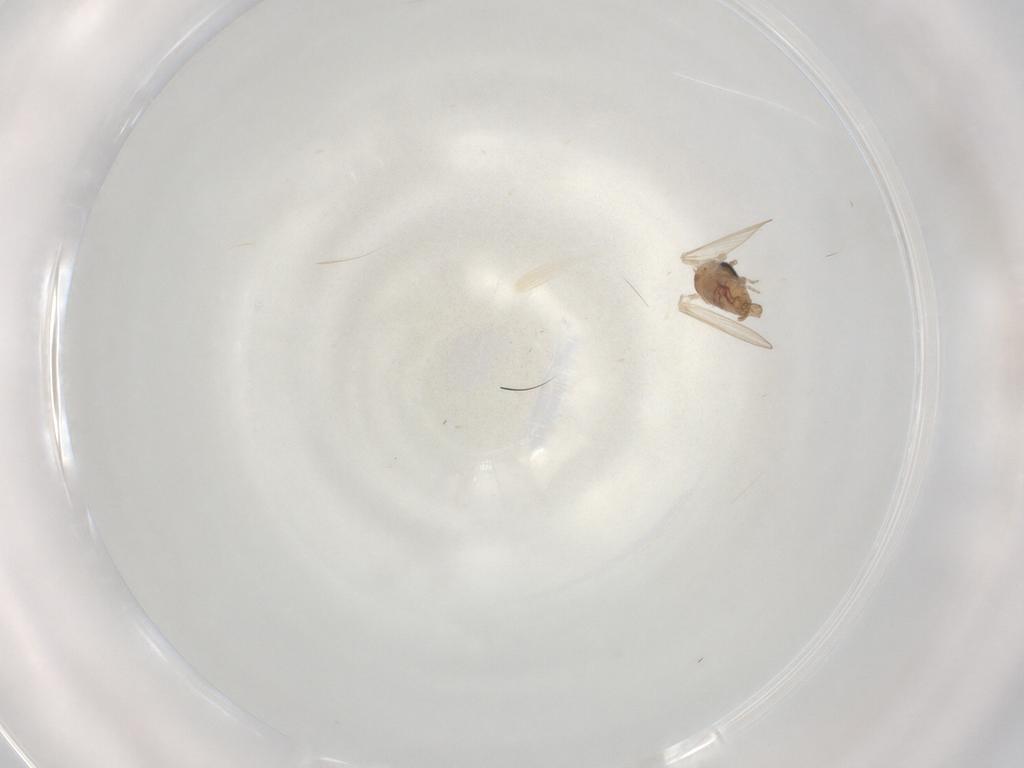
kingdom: Animalia
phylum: Arthropoda
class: Insecta
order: Diptera
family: Psychodidae
